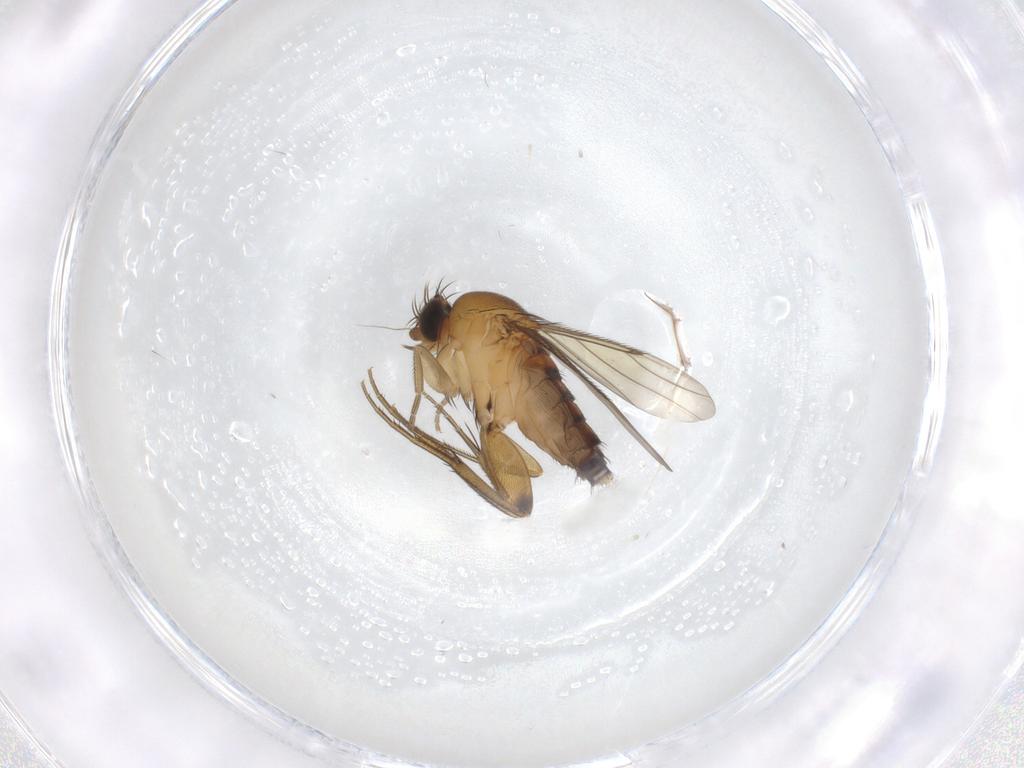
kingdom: Animalia
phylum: Arthropoda
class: Insecta
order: Diptera
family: Phoridae
